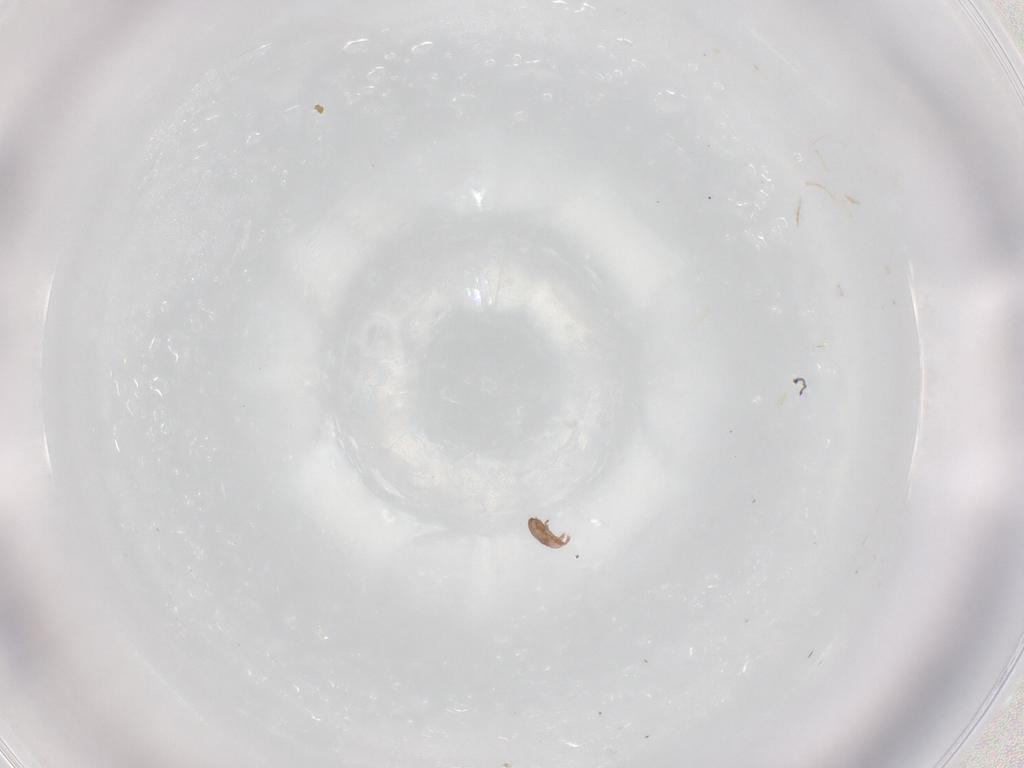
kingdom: Animalia
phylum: Arthropoda
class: Arachnida
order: Sarcoptiformes
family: Eremaeidae
